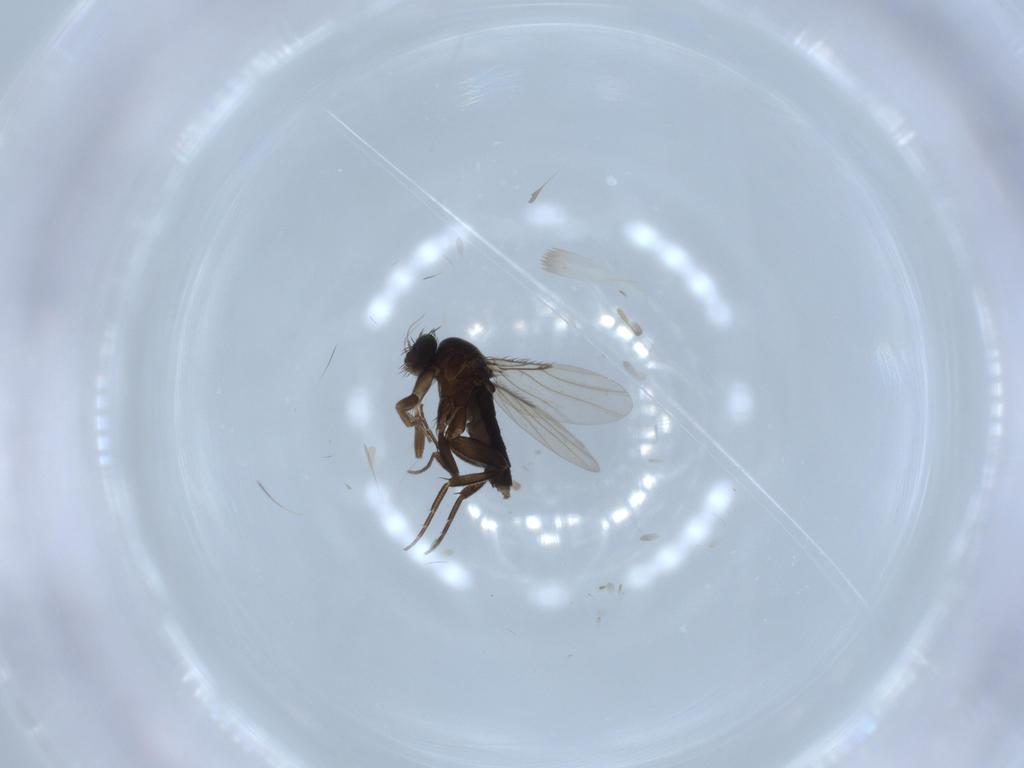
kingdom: Animalia
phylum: Arthropoda
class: Insecta
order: Diptera
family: Phoridae
